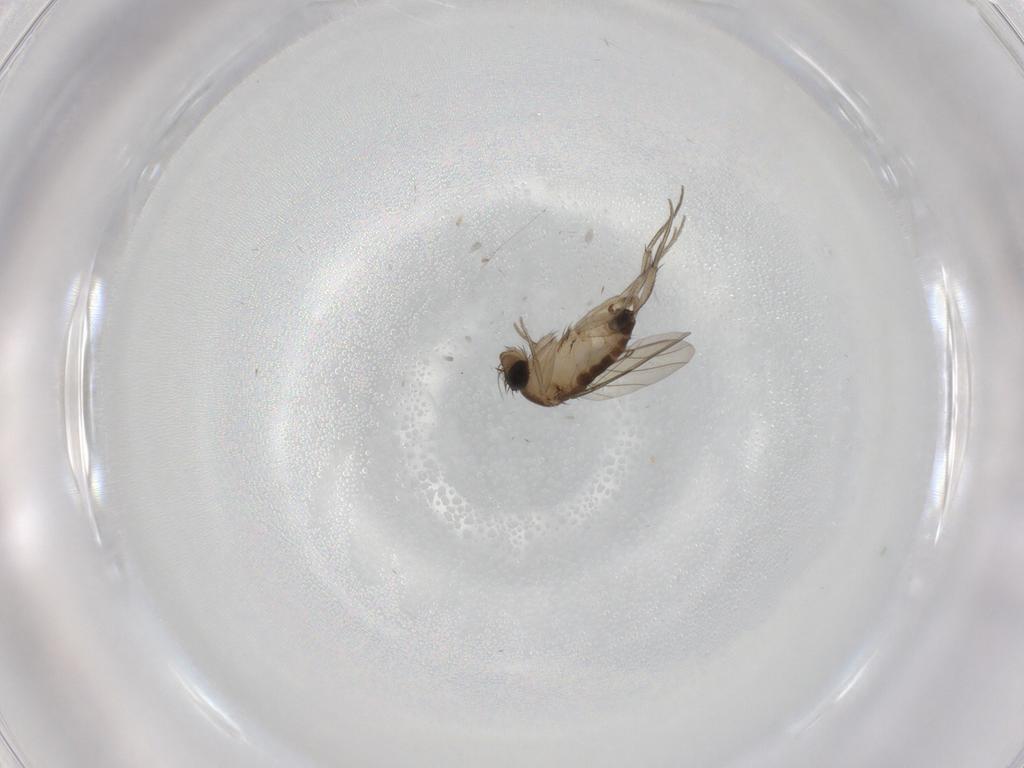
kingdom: Animalia
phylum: Arthropoda
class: Insecta
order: Diptera
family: Phoridae
